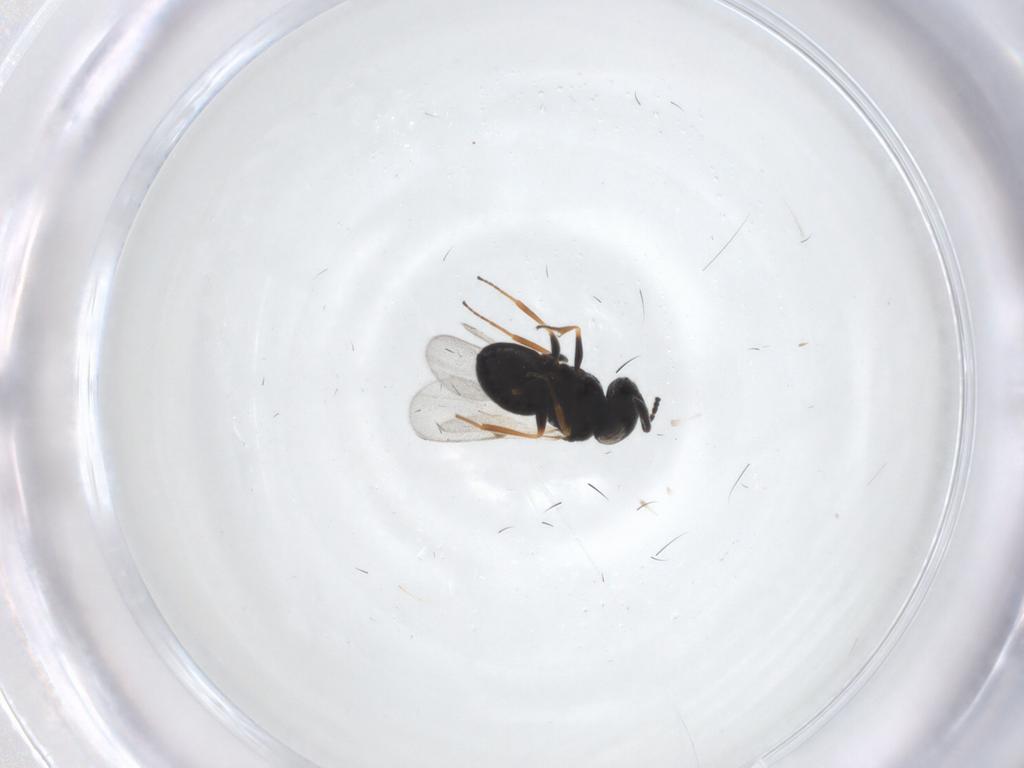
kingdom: Animalia
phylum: Arthropoda
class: Insecta
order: Hymenoptera
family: Scelionidae
